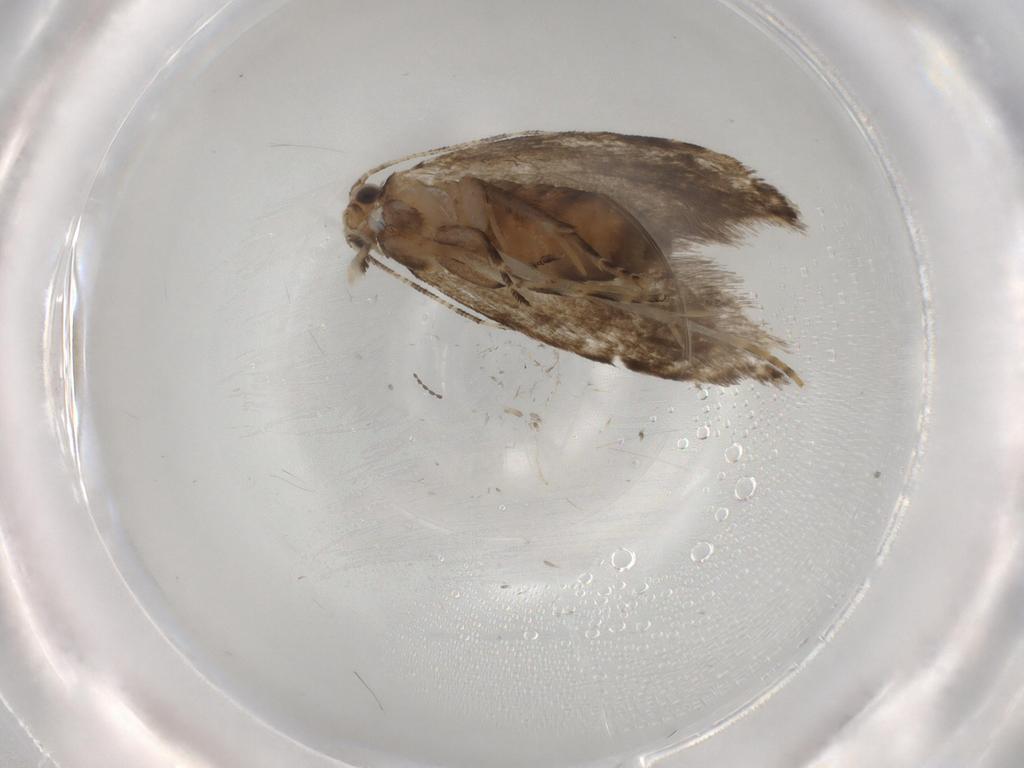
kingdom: Animalia
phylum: Arthropoda
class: Insecta
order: Lepidoptera
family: Tineidae
